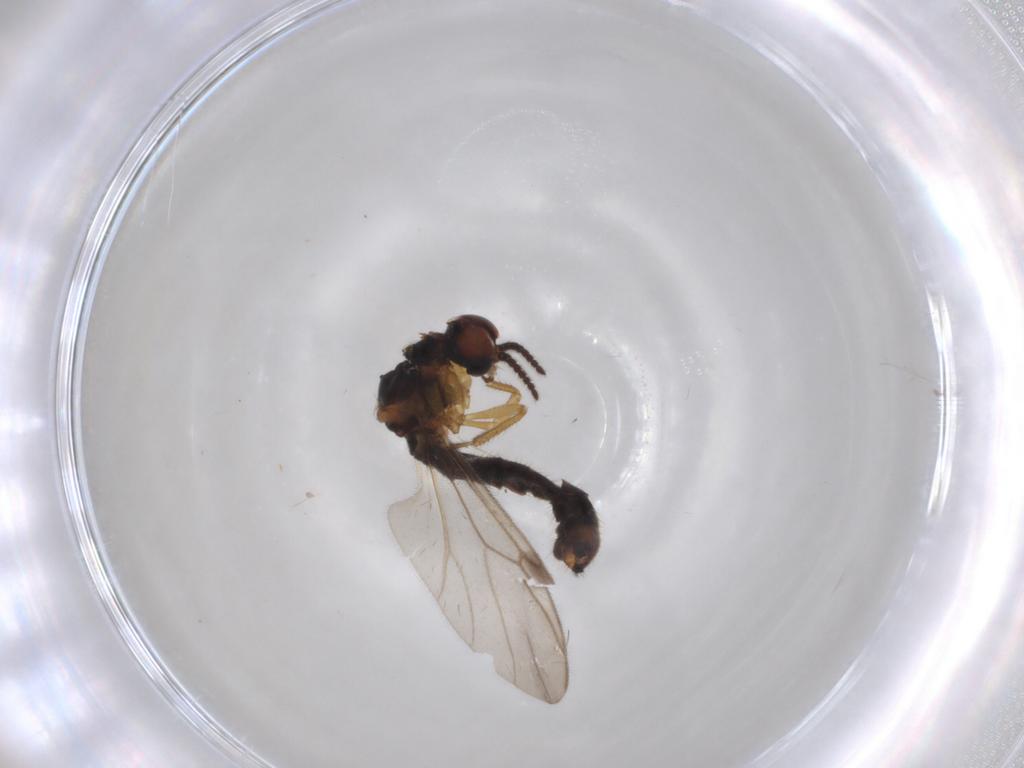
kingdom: Animalia
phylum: Arthropoda
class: Insecta
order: Diptera
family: Bibionidae
